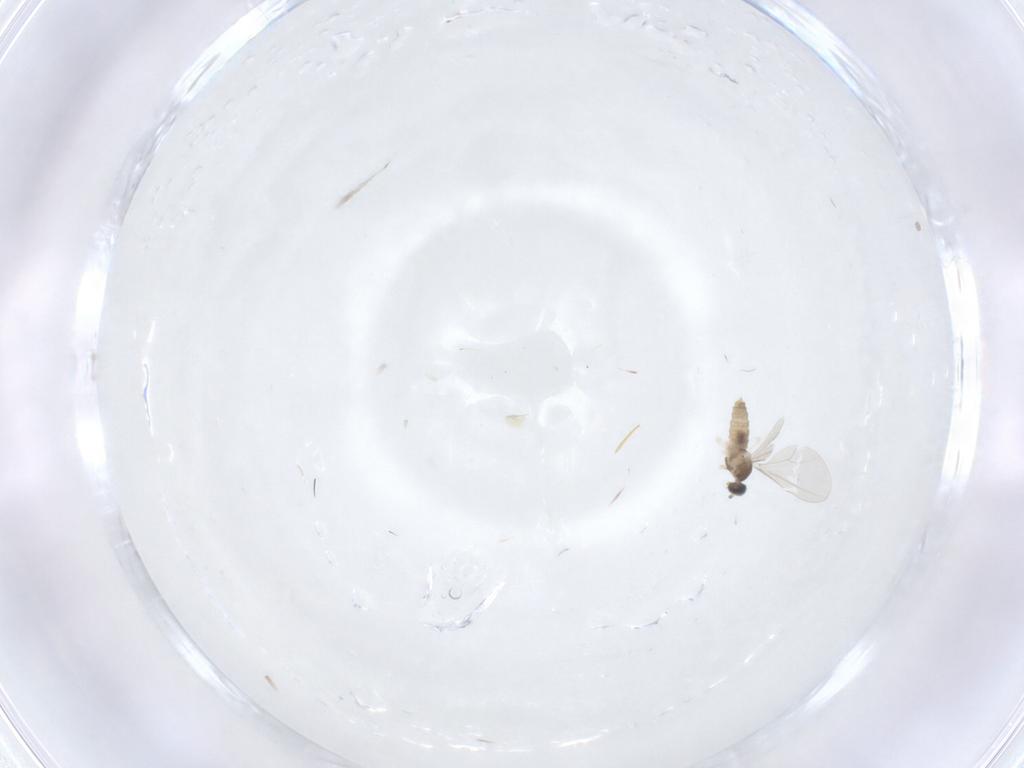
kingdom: Animalia
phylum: Arthropoda
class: Insecta
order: Diptera
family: Cecidomyiidae
